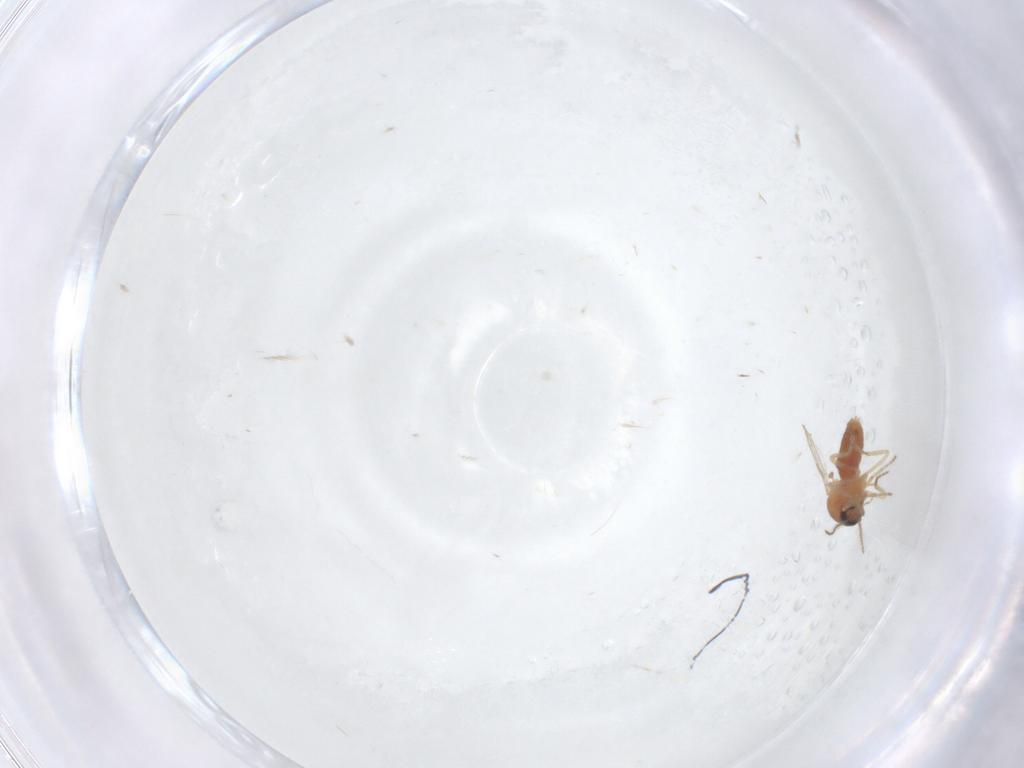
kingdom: Animalia
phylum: Arthropoda
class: Insecta
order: Diptera
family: Ceratopogonidae
